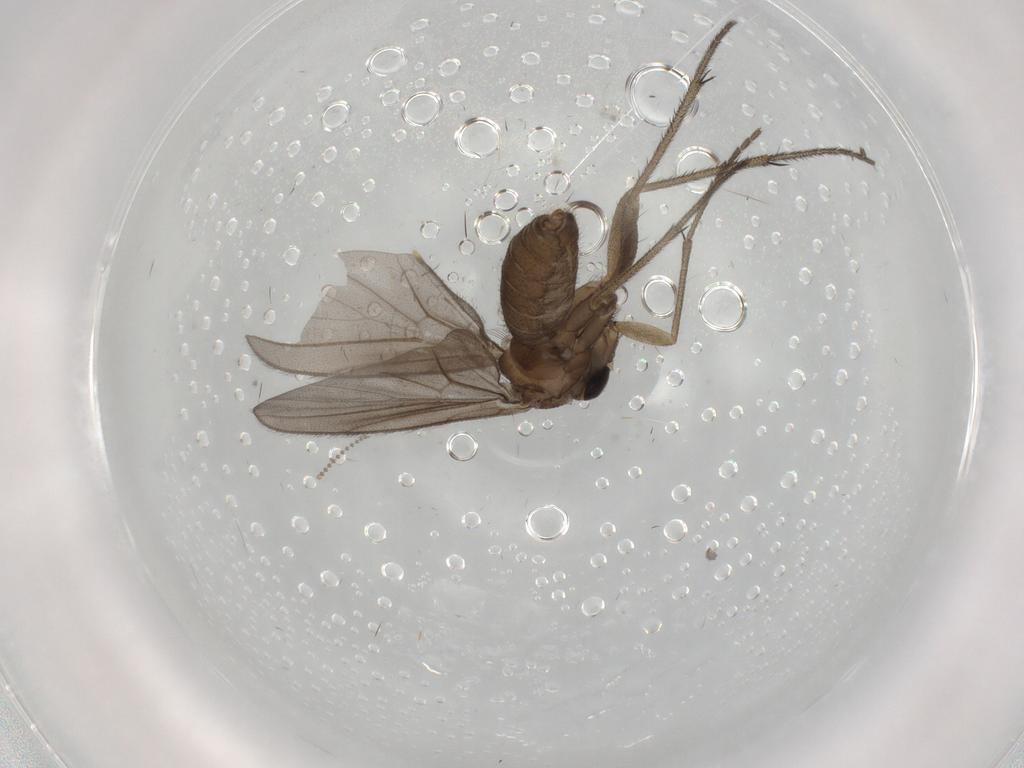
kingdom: Animalia
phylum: Arthropoda
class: Insecta
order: Diptera
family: Diadocidiidae
